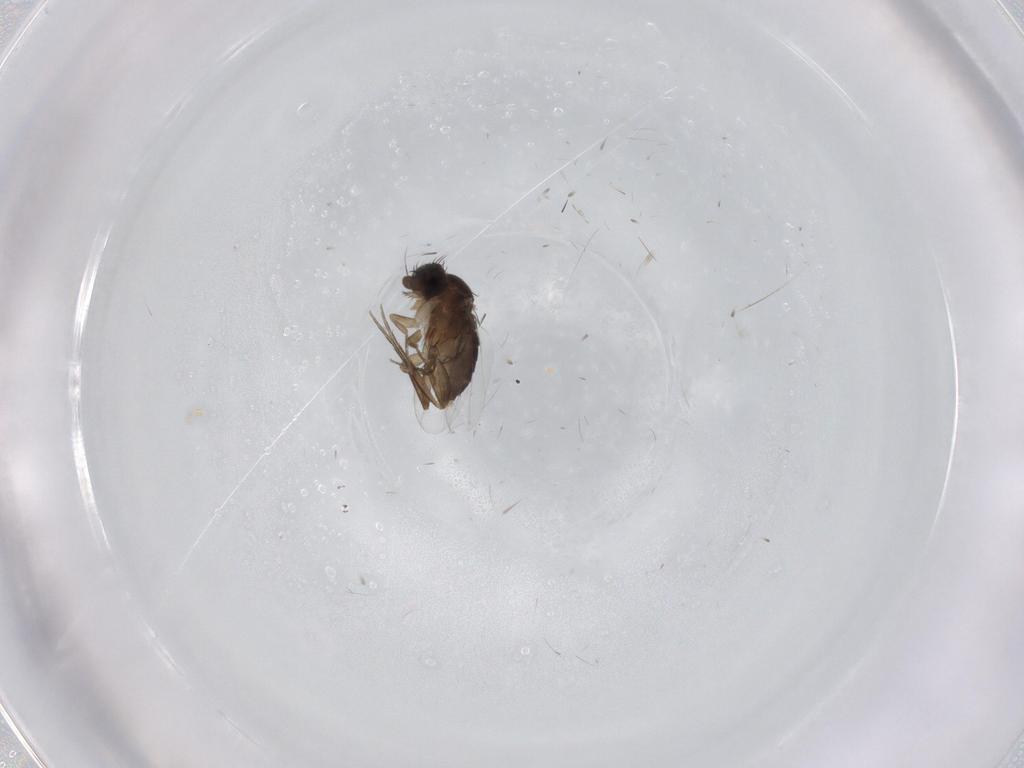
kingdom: Animalia
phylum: Arthropoda
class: Insecta
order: Diptera
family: Phoridae
